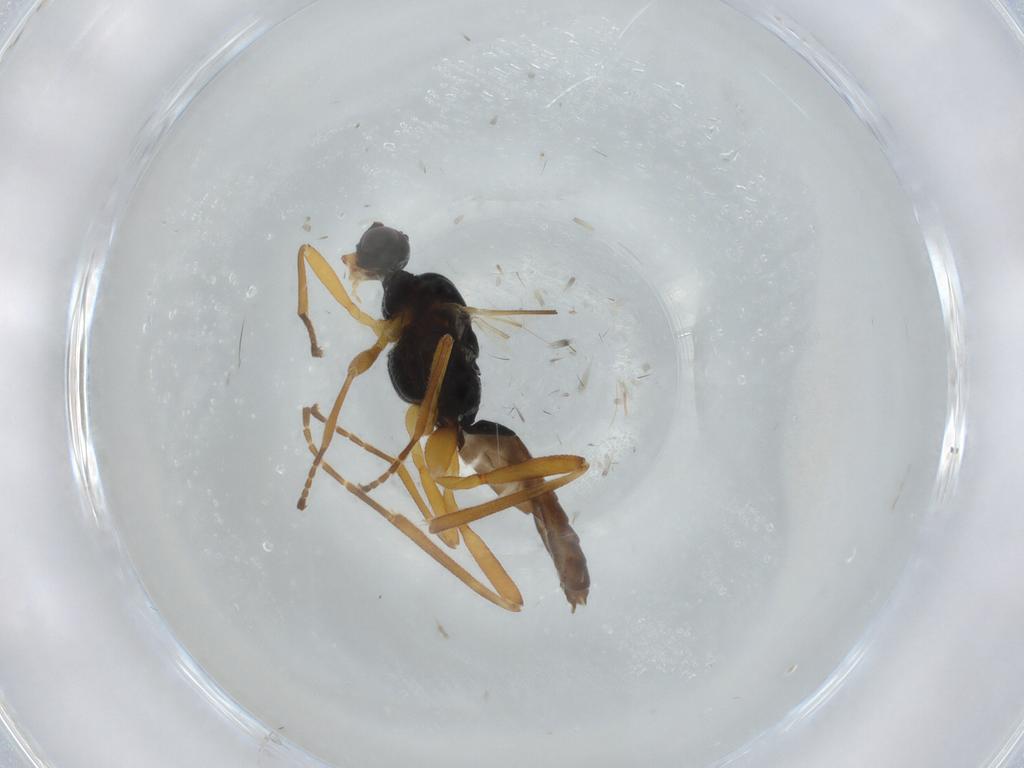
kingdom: Animalia
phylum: Arthropoda
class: Insecta
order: Hymenoptera
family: Braconidae
